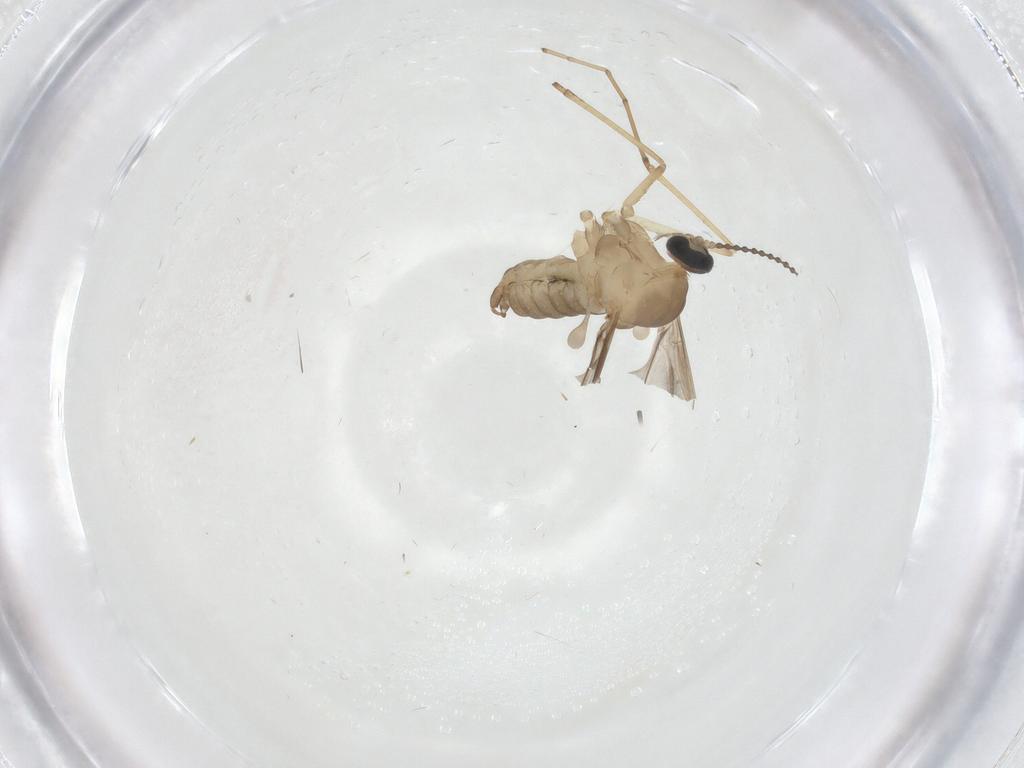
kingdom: Animalia
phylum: Arthropoda
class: Insecta
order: Diptera
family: Cecidomyiidae
